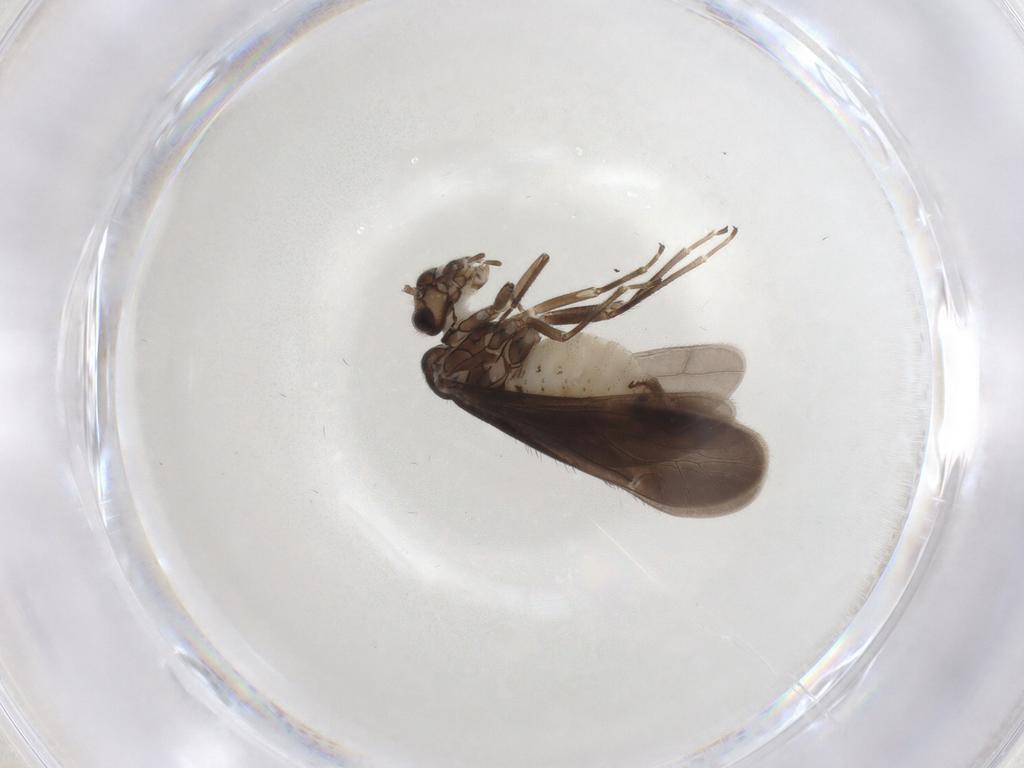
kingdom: Animalia
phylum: Arthropoda
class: Insecta
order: Psocodea
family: Caeciliusidae
